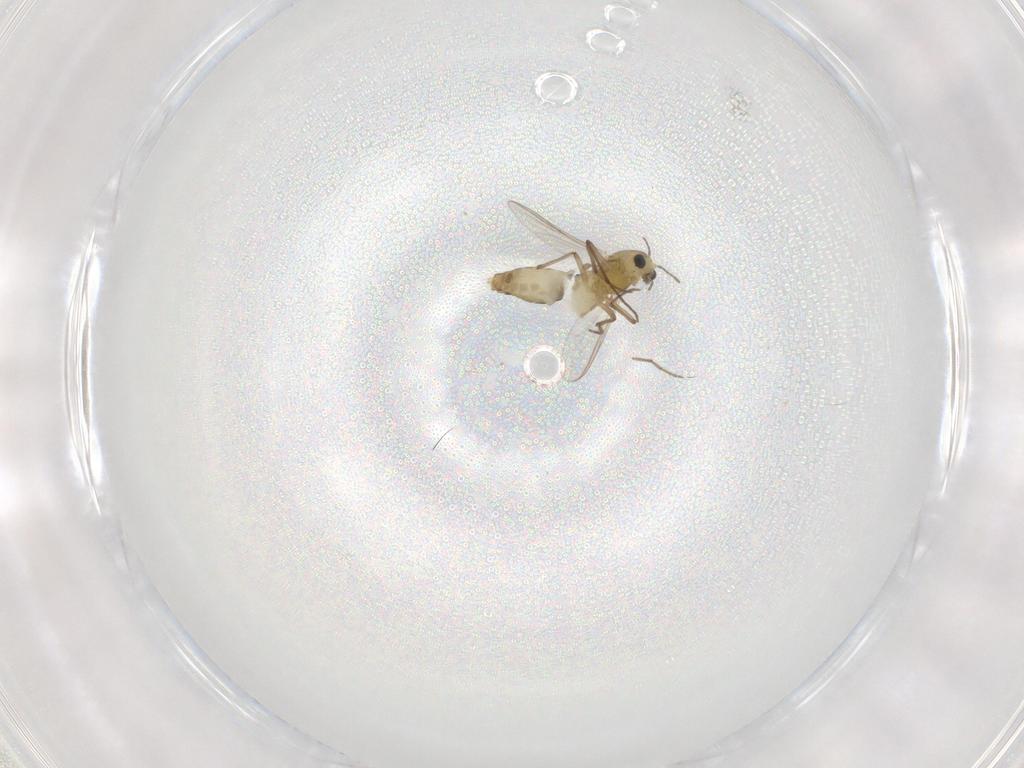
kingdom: Animalia
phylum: Arthropoda
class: Insecta
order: Diptera
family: Chironomidae
